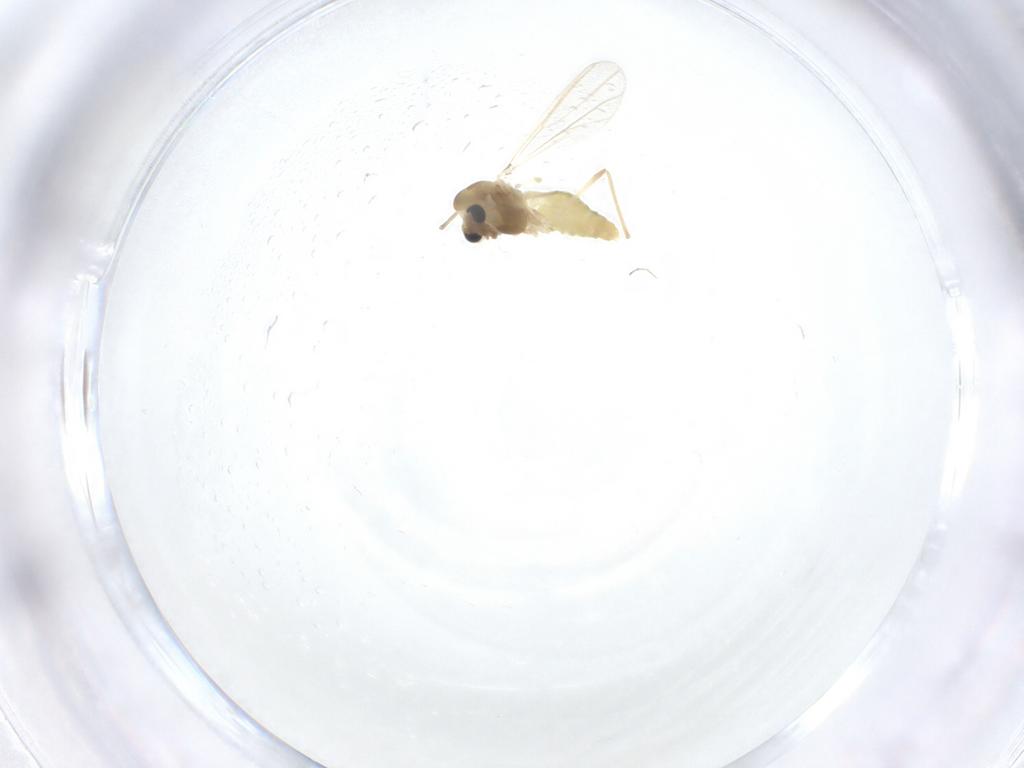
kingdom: Animalia
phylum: Arthropoda
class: Insecta
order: Diptera
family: Chironomidae
